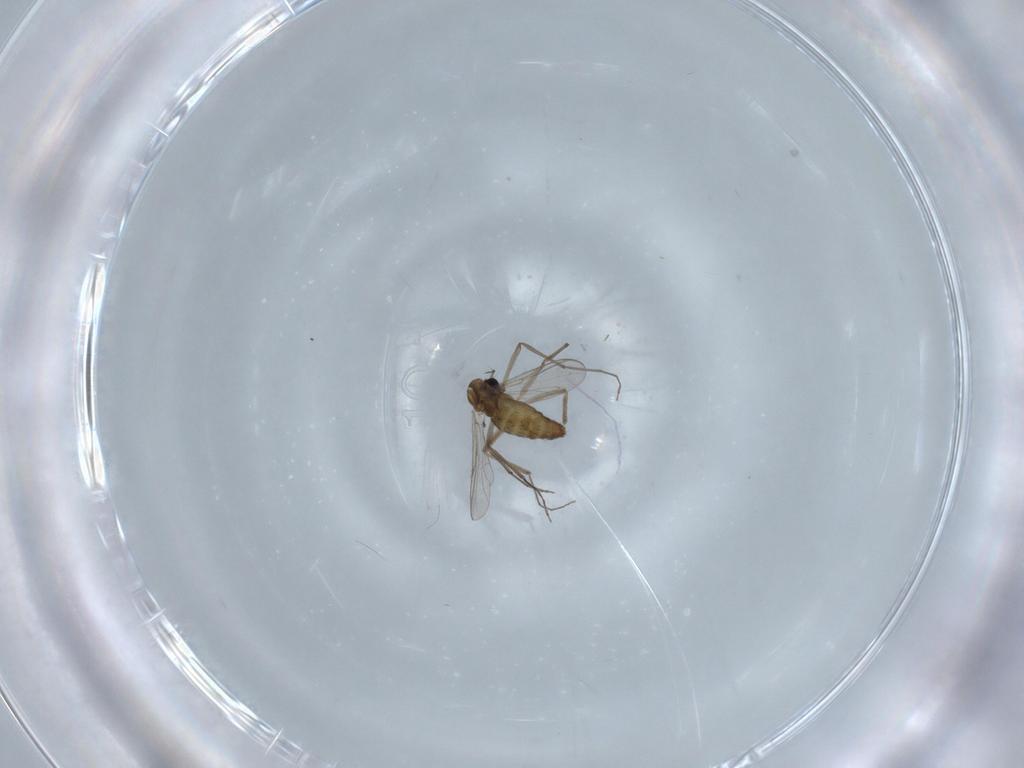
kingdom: Animalia
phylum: Arthropoda
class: Insecta
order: Diptera
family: Chironomidae
